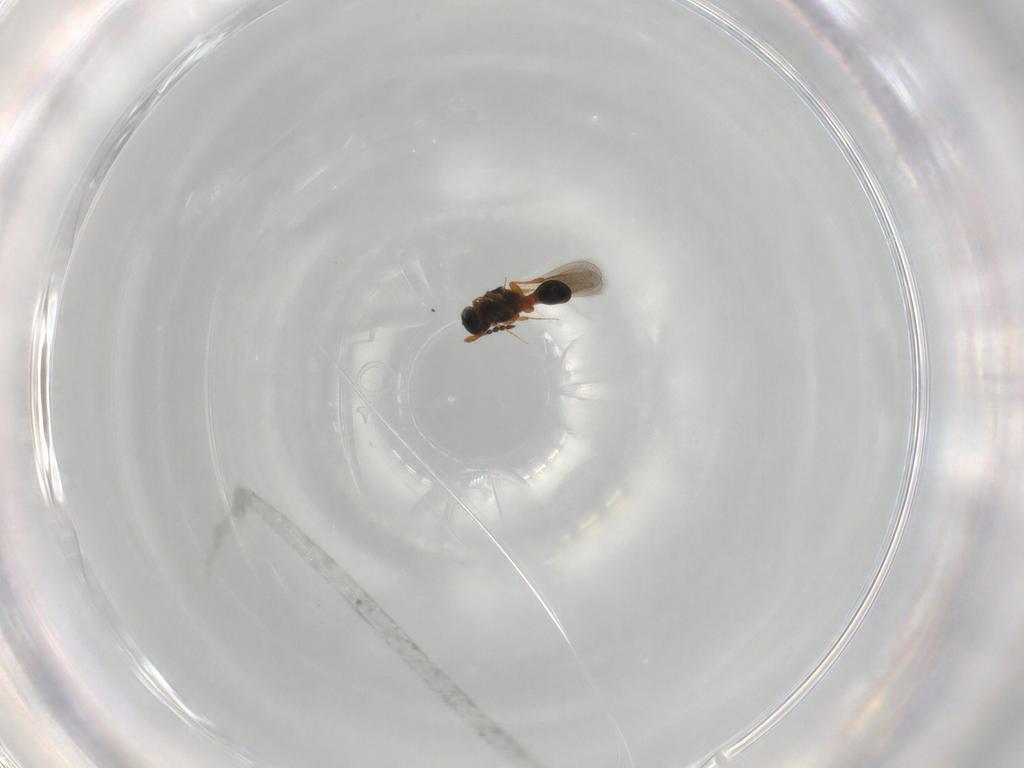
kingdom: Animalia
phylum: Arthropoda
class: Insecta
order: Hymenoptera
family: Platygastridae
